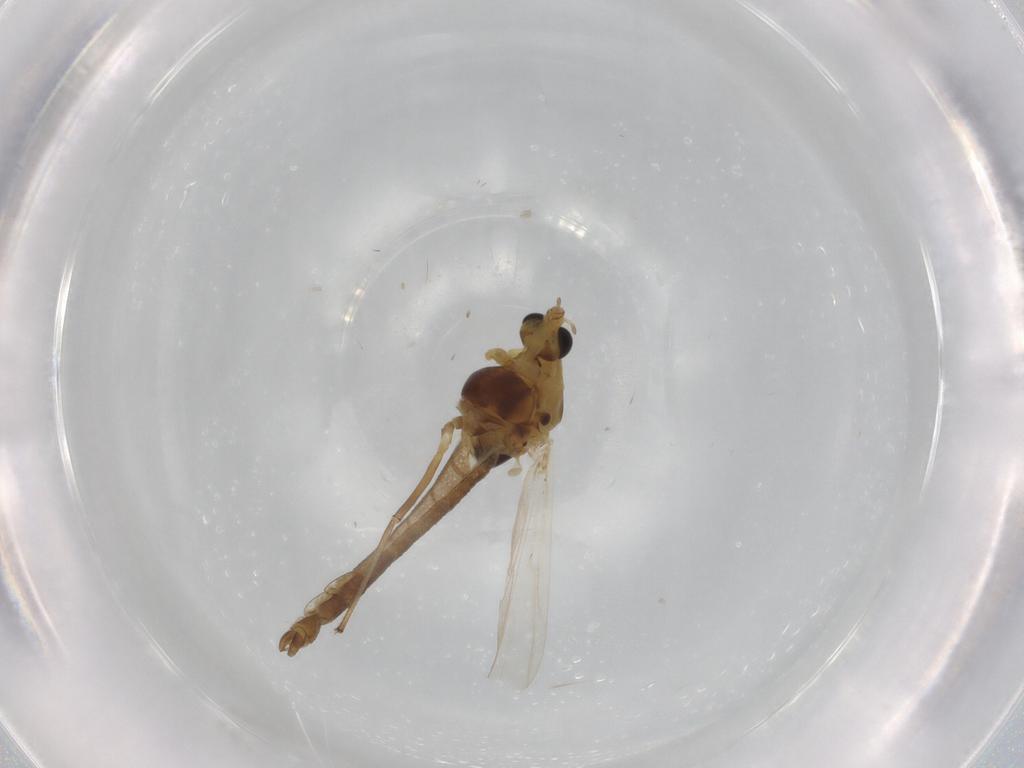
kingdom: Animalia
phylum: Arthropoda
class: Insecta
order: Diptera
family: Chironomidae
